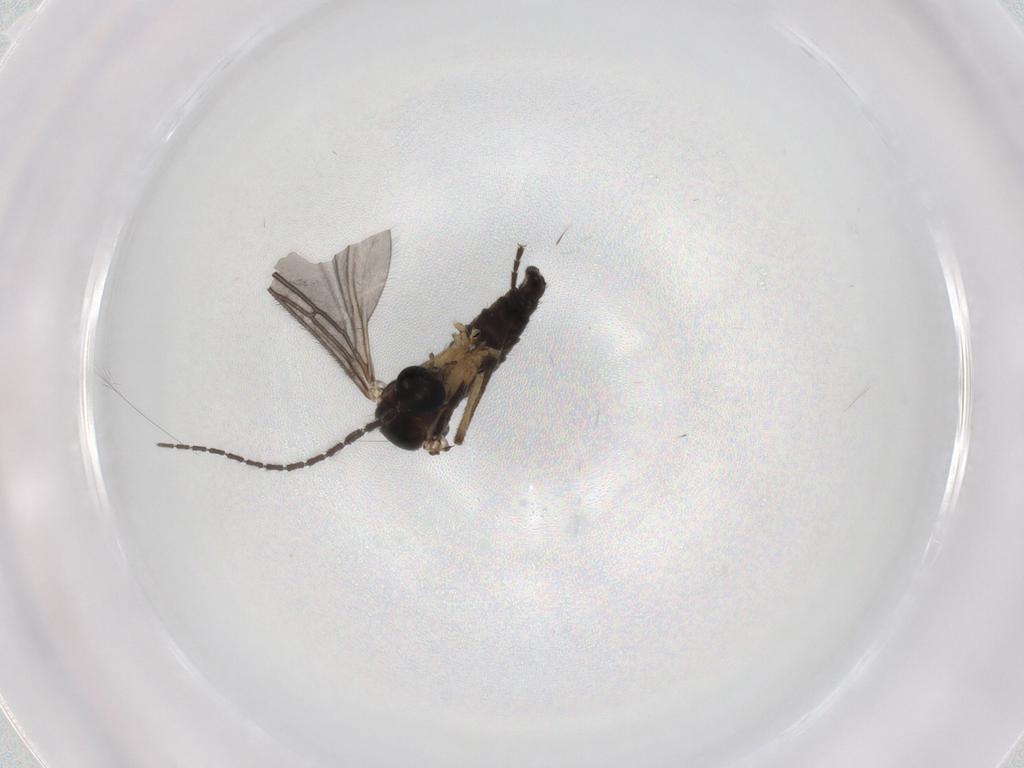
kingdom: Animalia
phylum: Arthropoda
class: Insecta
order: Diptera
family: Sciaridae
